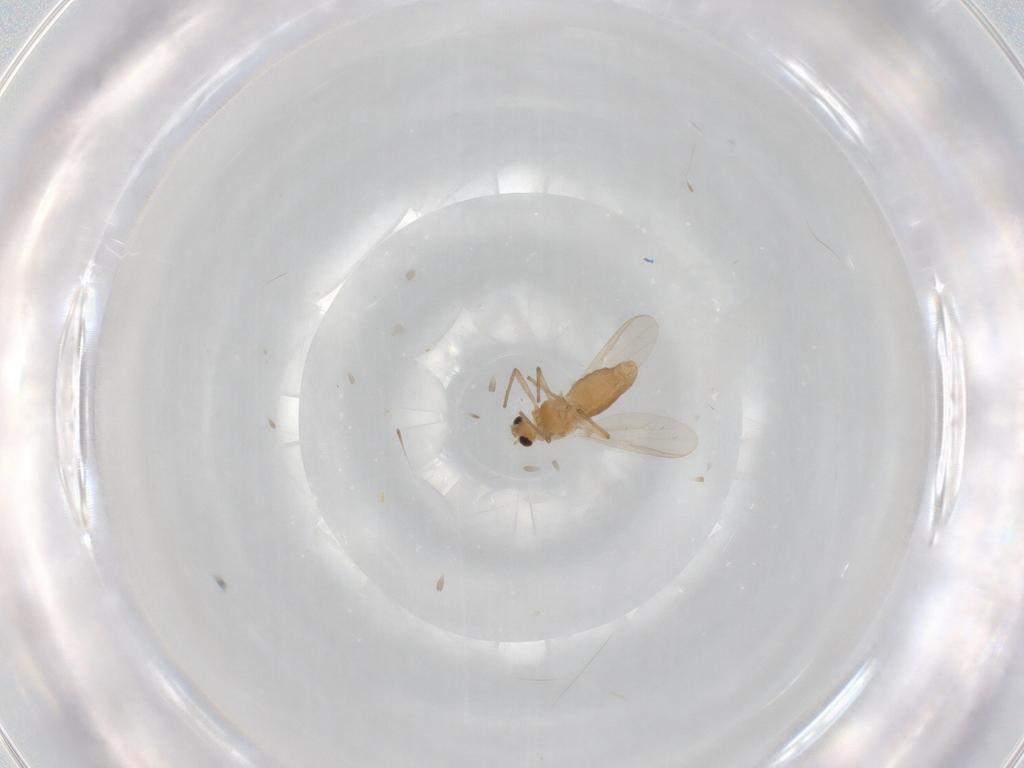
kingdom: Animalia
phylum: Arthropoda
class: Insecta
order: Diptera
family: Chironomidae
